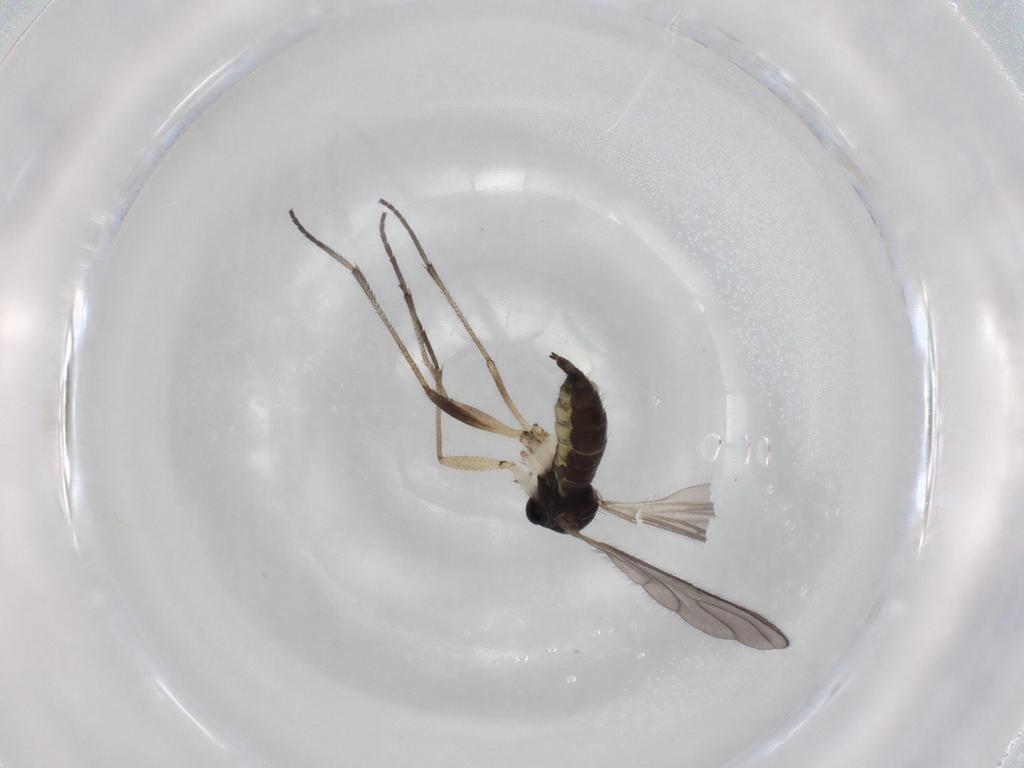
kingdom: Animalia
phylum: Arthropoda
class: Insecta
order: Diptera
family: Sciaridae
